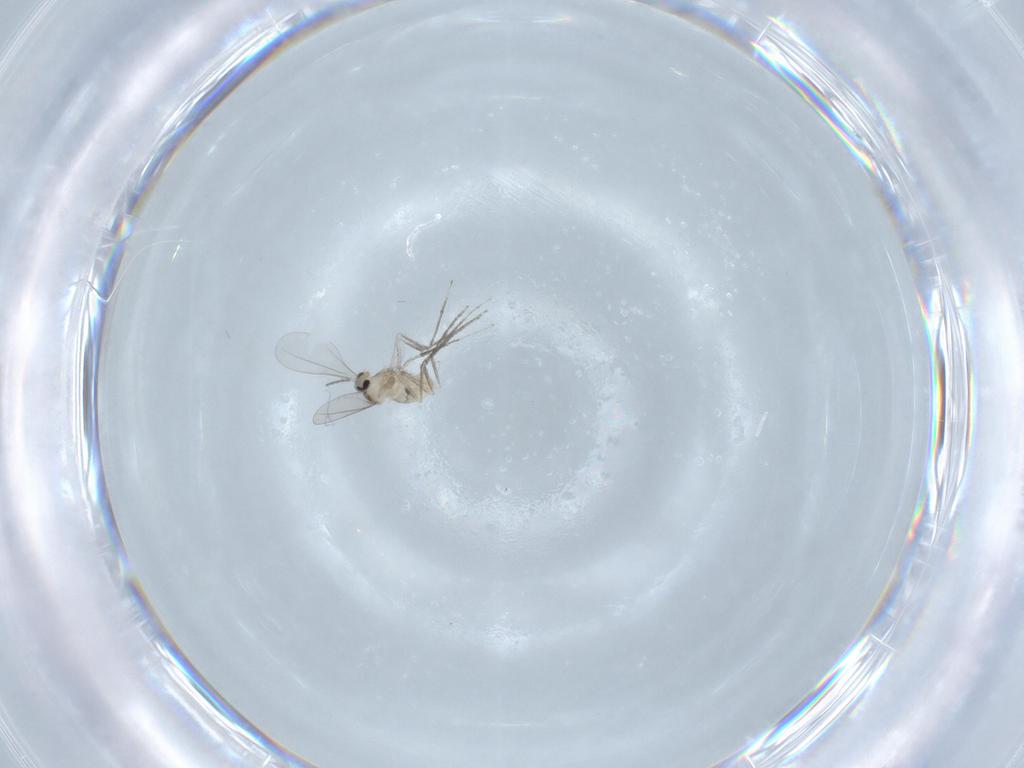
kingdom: Animalia
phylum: Arthropoda
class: Insecta
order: Diptera
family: Cecidomyiidae
